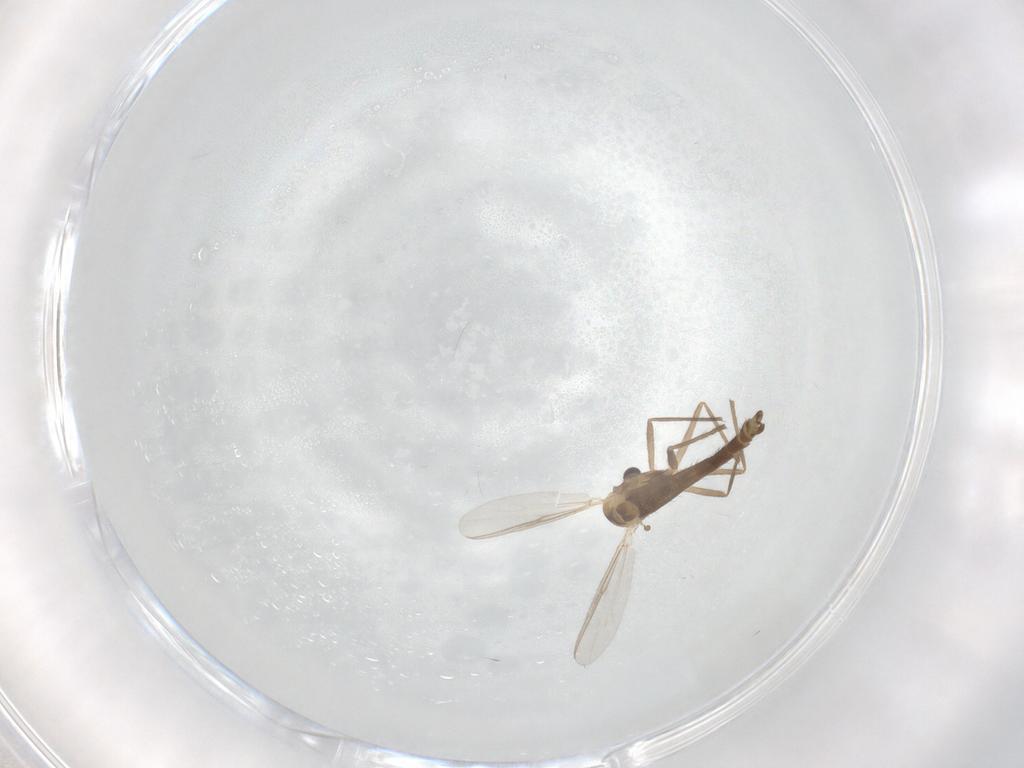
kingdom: Animalia
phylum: Arthropoda
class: Insecta
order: Diptera
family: Chironomidae
